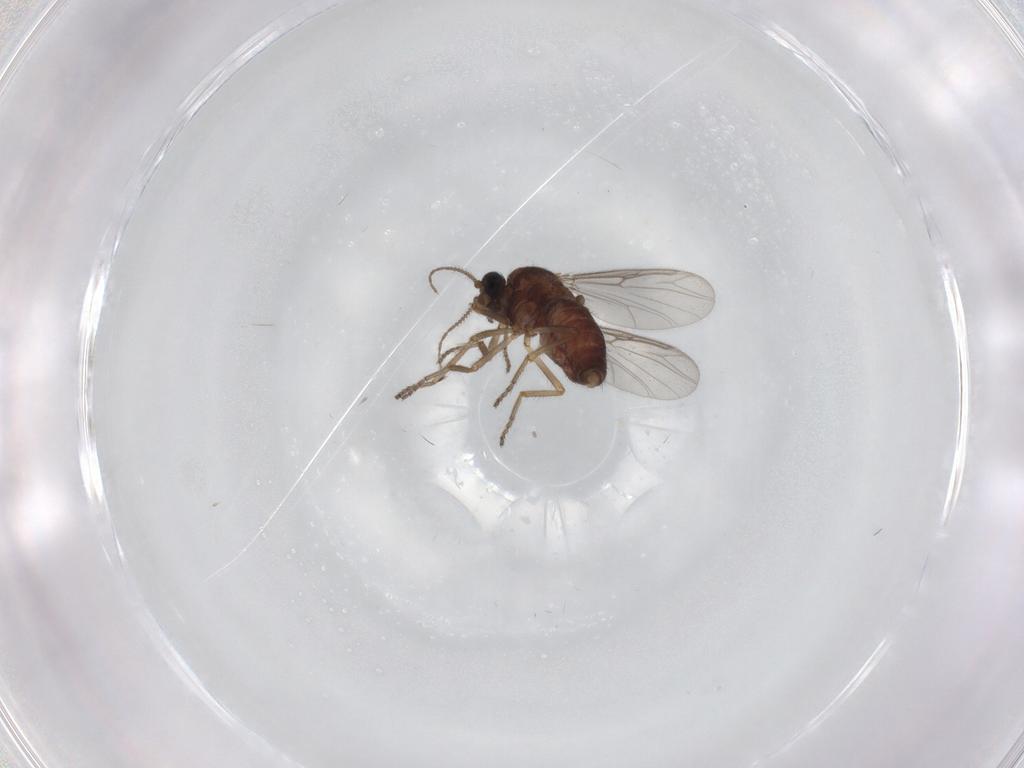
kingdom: Animalia
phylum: Arthropoda
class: Insecta
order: Diptera
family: Ceratopogonidae
